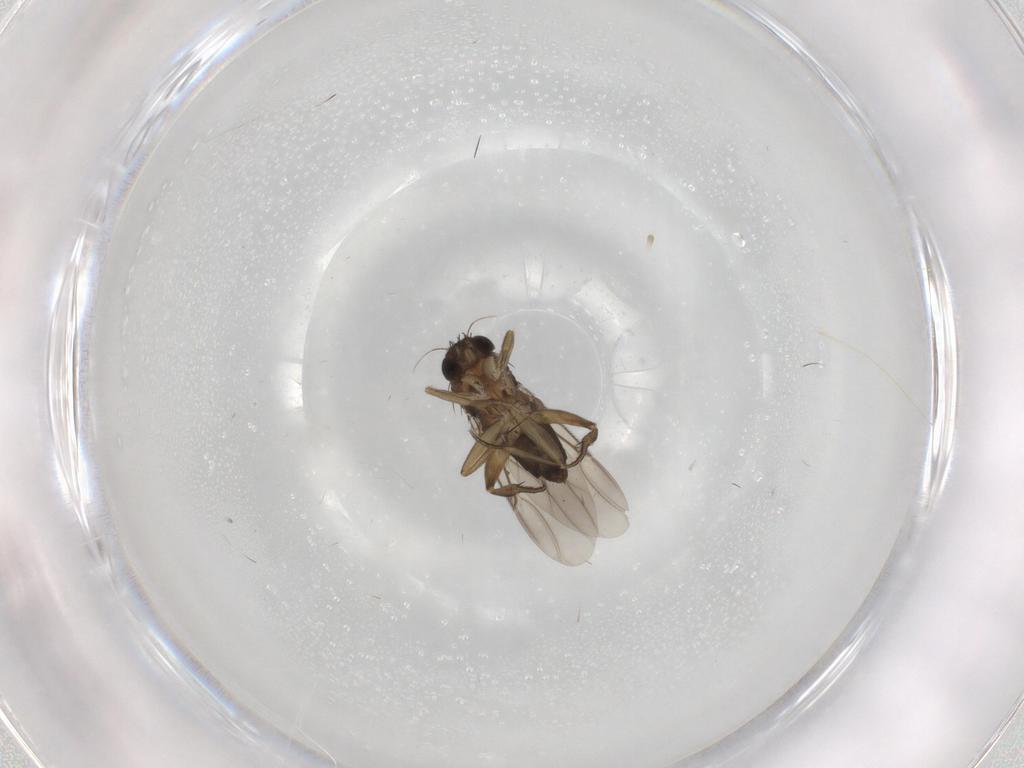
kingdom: Animalia
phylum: Arthropoda
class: Insecta
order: Diptera
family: Phoridae
